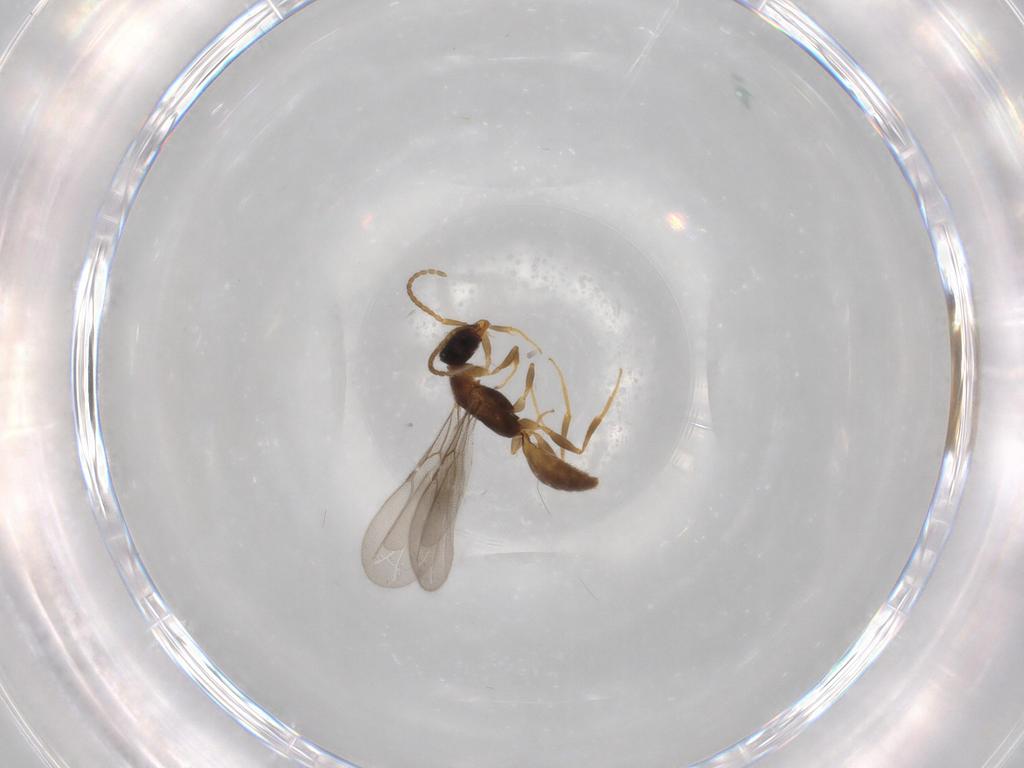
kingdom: Animalia
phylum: Arthropoda
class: Insecta
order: Hymenoptera
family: Bethylidae
